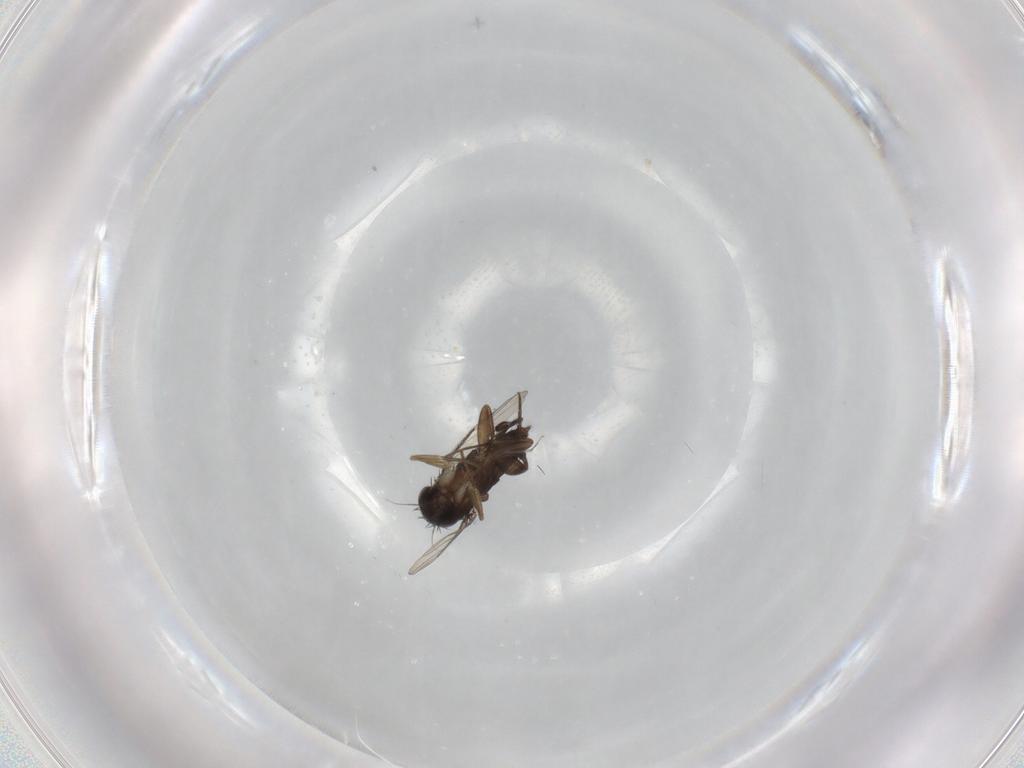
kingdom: Animalia
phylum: Arthropoda
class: Insecta
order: Diptera
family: Phoridae
